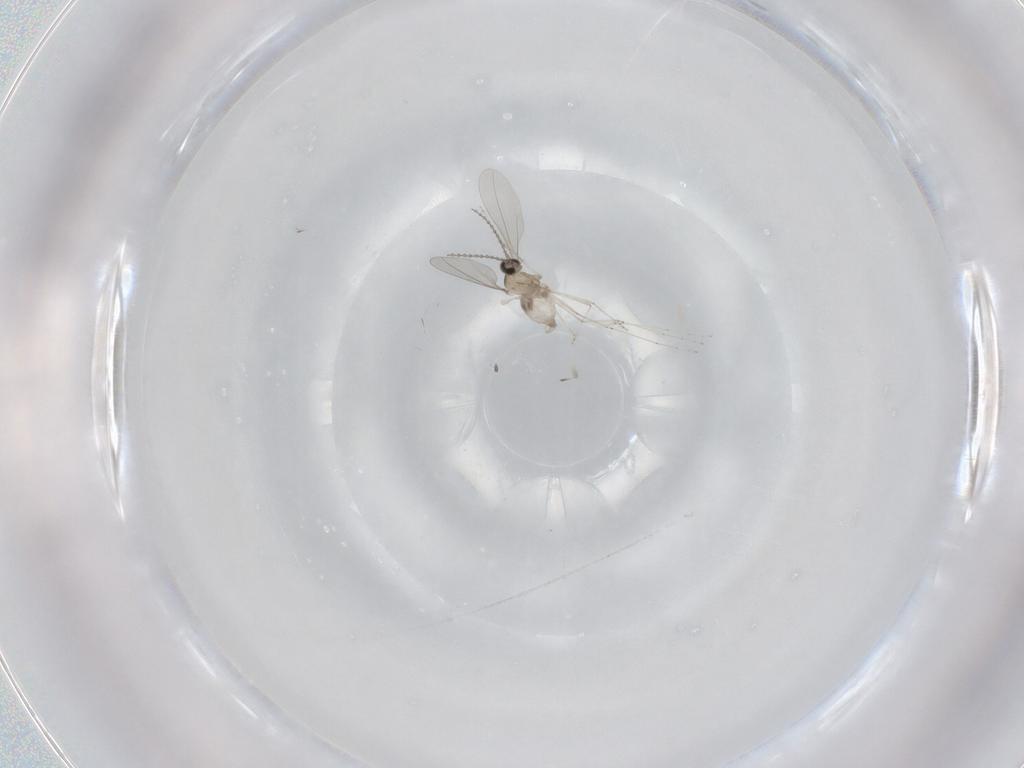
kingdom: Animalia
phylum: Arthropoda
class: Insecta
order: Diptera
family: Cecidomyiidae
